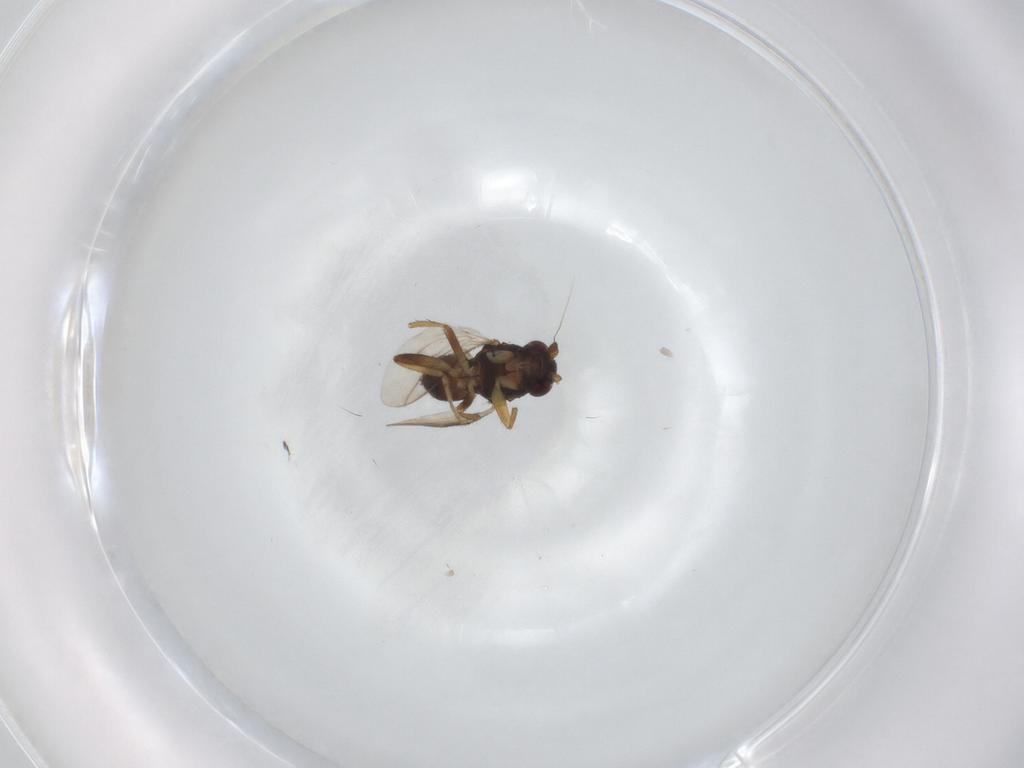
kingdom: Animalia
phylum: Arthropoda
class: Insecta
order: Diptera
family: Sphaeroceridae
